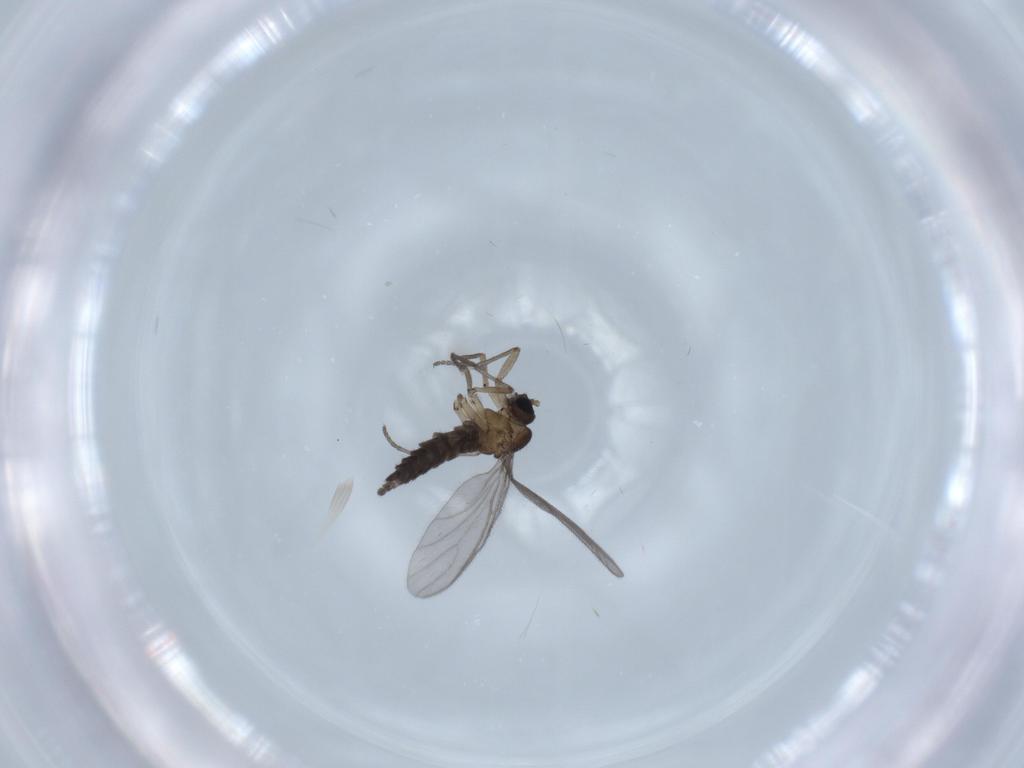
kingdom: Animalia
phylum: Arthropoda
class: Insecta
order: Diptera
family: Sciaridae
